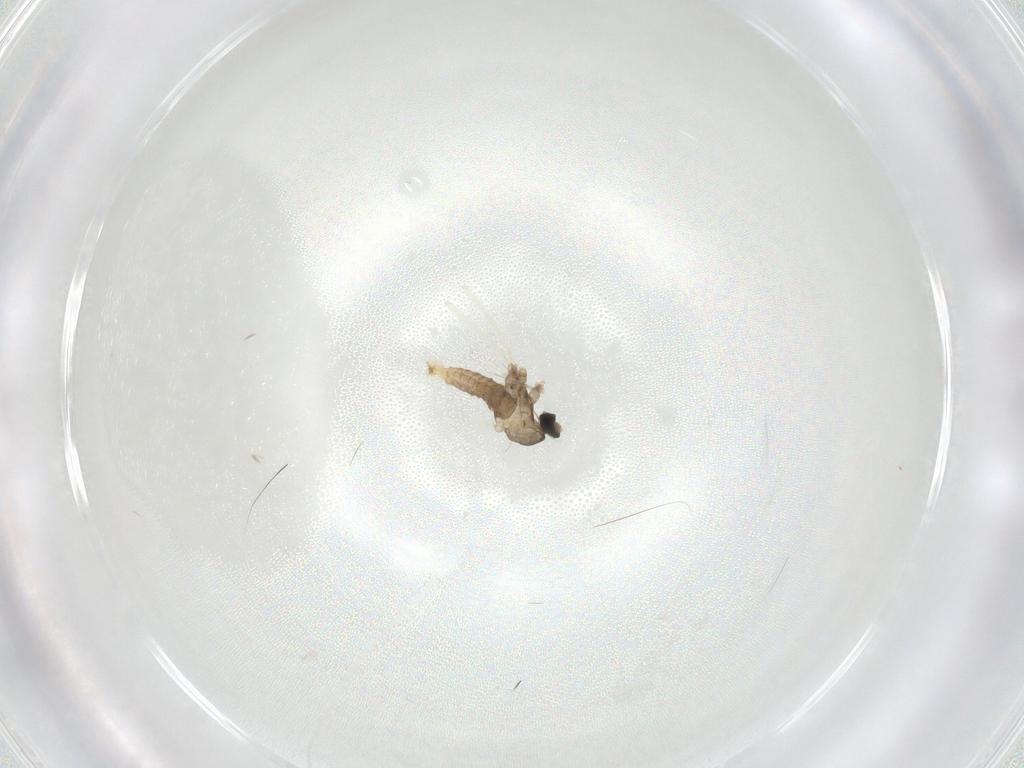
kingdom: Animalia
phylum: Arthropoda
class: Insecta
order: Diptera
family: Cecidomyiidae
